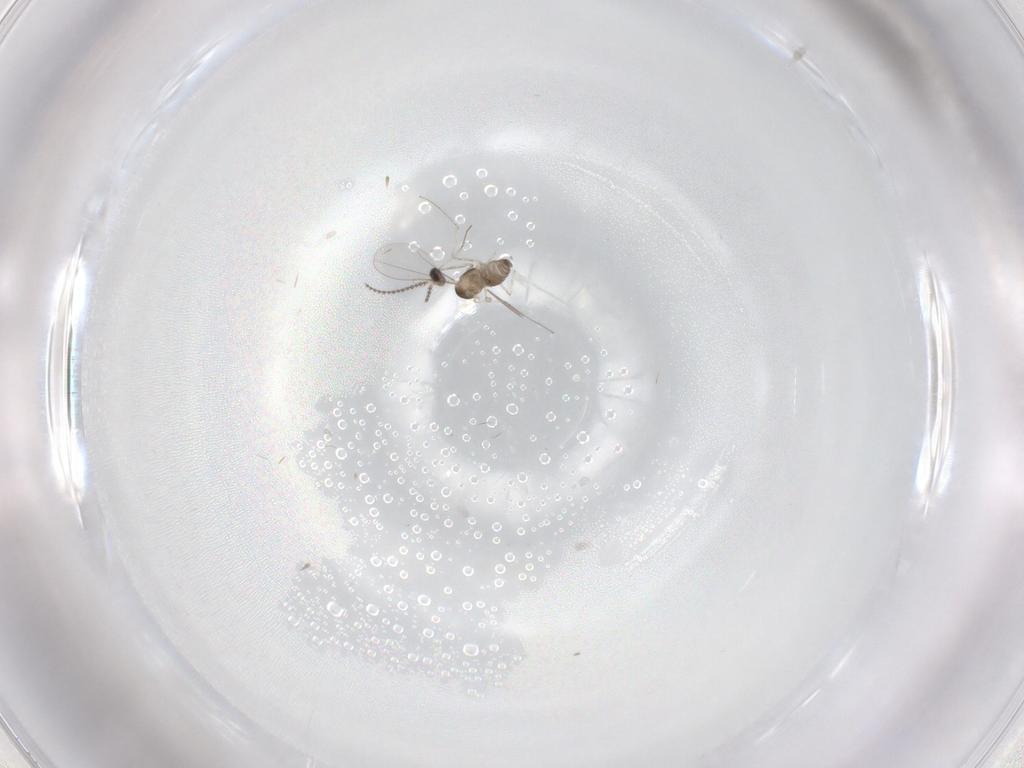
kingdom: Animalia
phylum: Arthropoda
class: Insecta
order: Diptera
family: Cecidomyiidae
